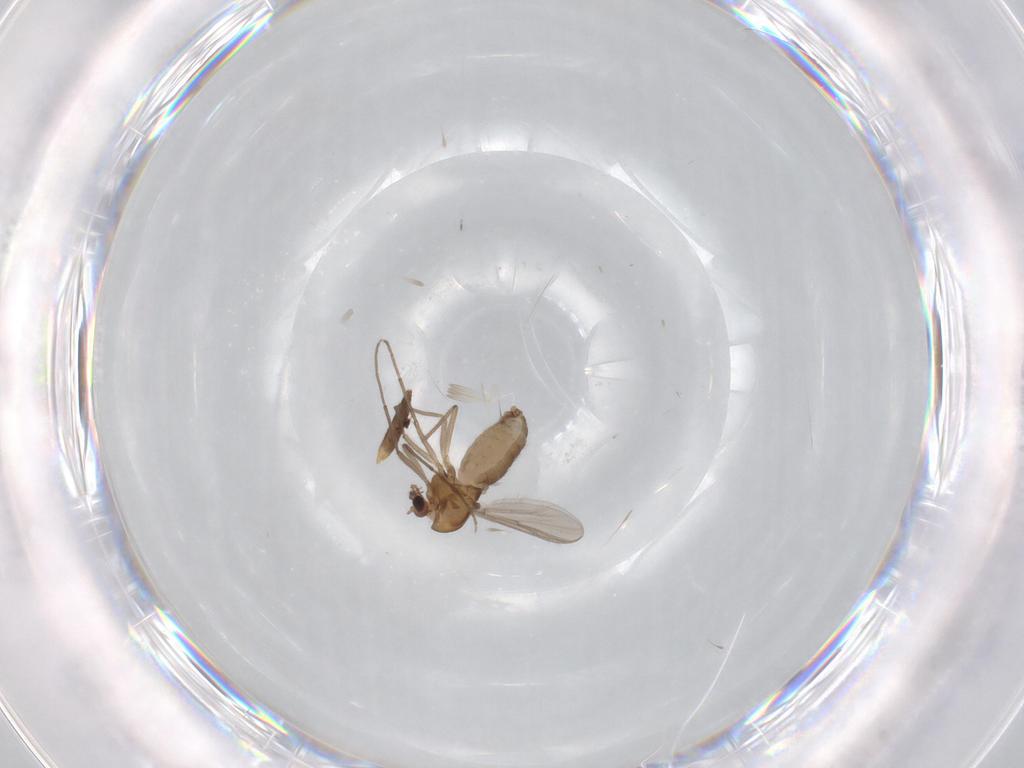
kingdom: Animalia
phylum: Arthropoda
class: Insecta
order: Diptera
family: Chironomidae
